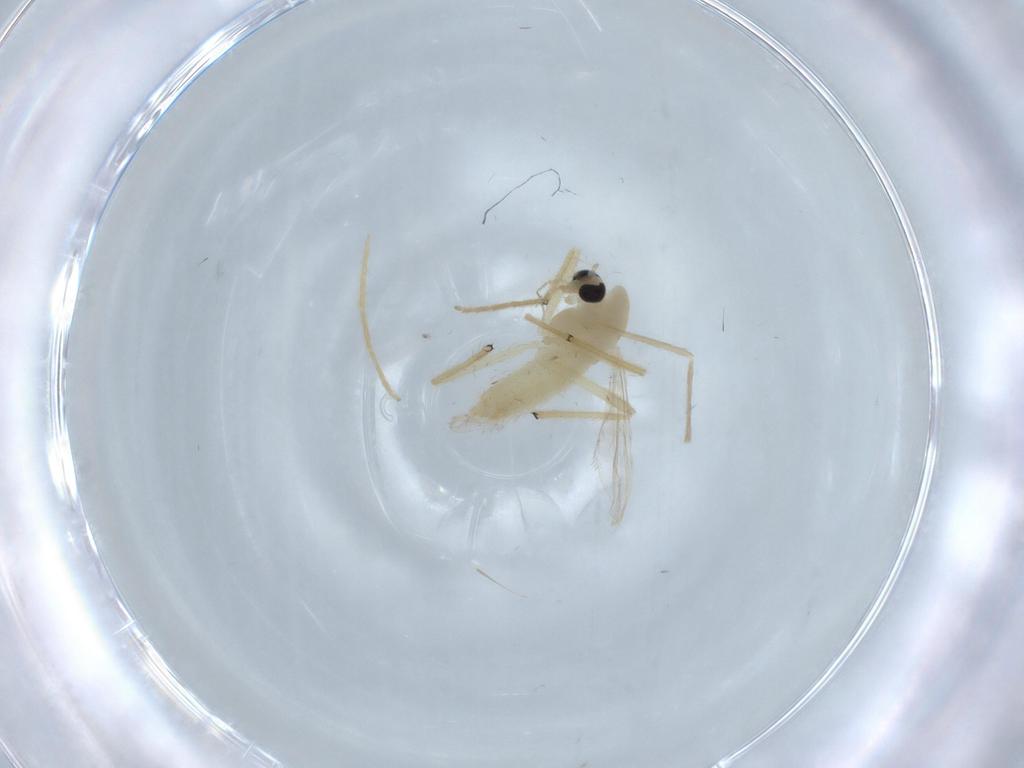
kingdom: Animalia
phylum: Arthropoda
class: Insecta
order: Diptera
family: Chironomidae
